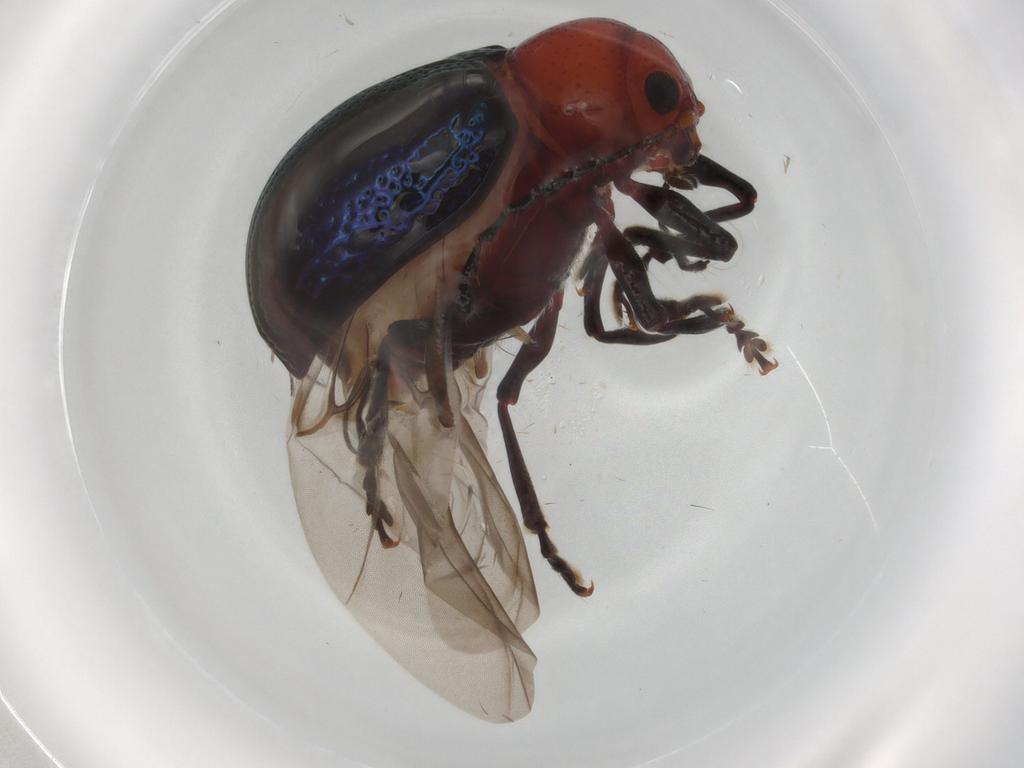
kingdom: Animalia
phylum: Arthropoda
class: Insecta
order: Coleoptera
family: Chrysomelidae
